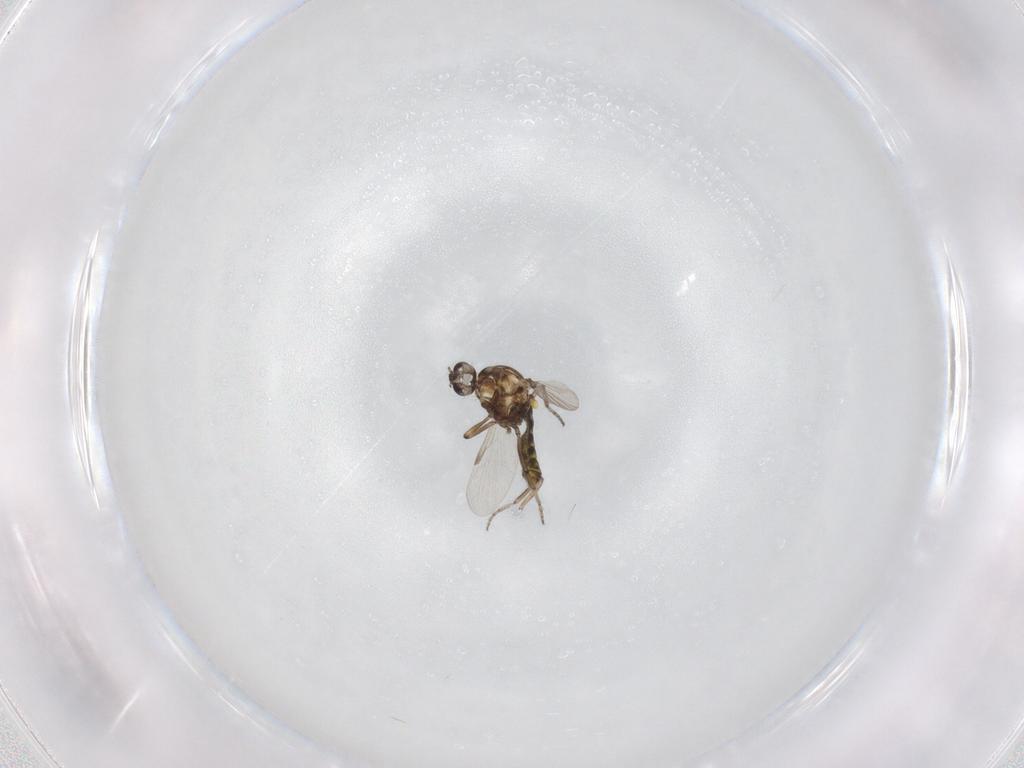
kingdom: Animalia
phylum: Arthropoda
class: Insecta
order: Diptera
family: Ceratopogonidae
